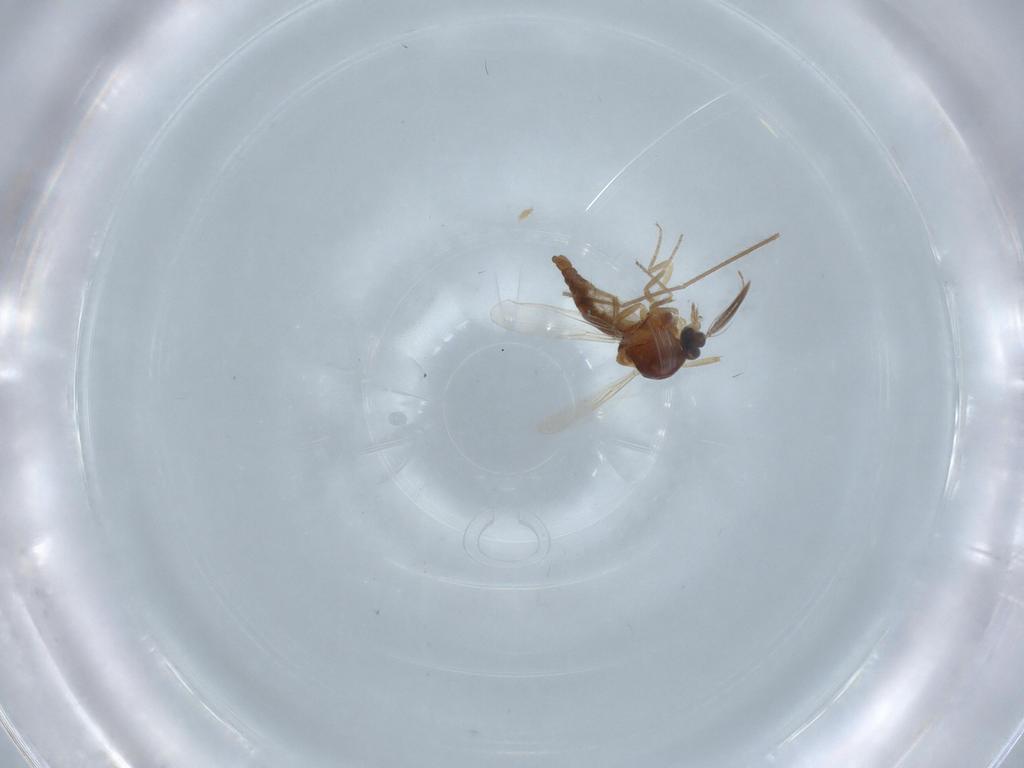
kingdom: Animalia
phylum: Arthropoda
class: Insecta
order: Diptera
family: Ceratopogonidae
